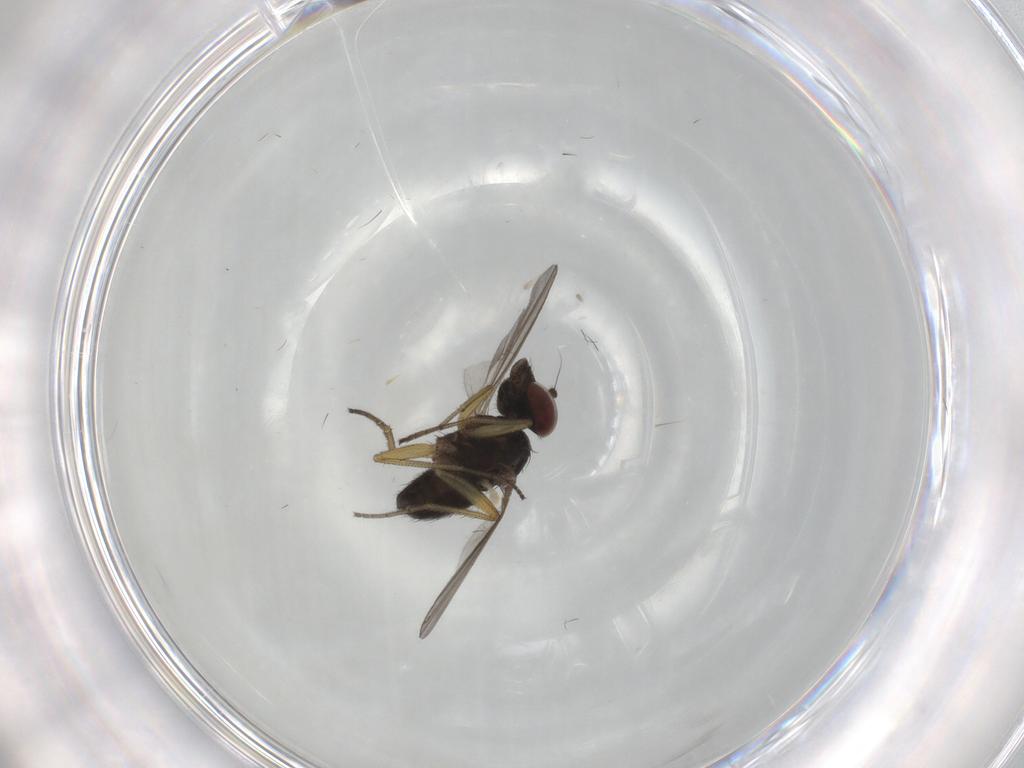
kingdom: Animalia
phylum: Arthropoda
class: Insecta
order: Diptera
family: Dolichopodidae
